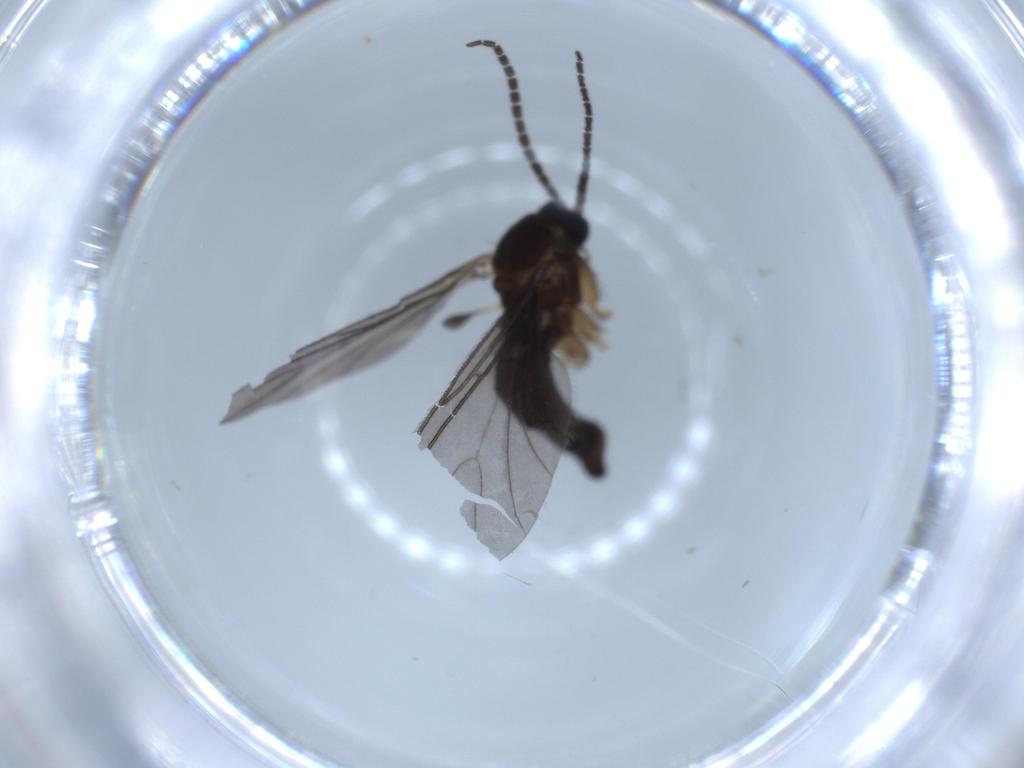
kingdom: Animalia
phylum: Arthropoda
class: Insecta
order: Diptera
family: Sciaridae
